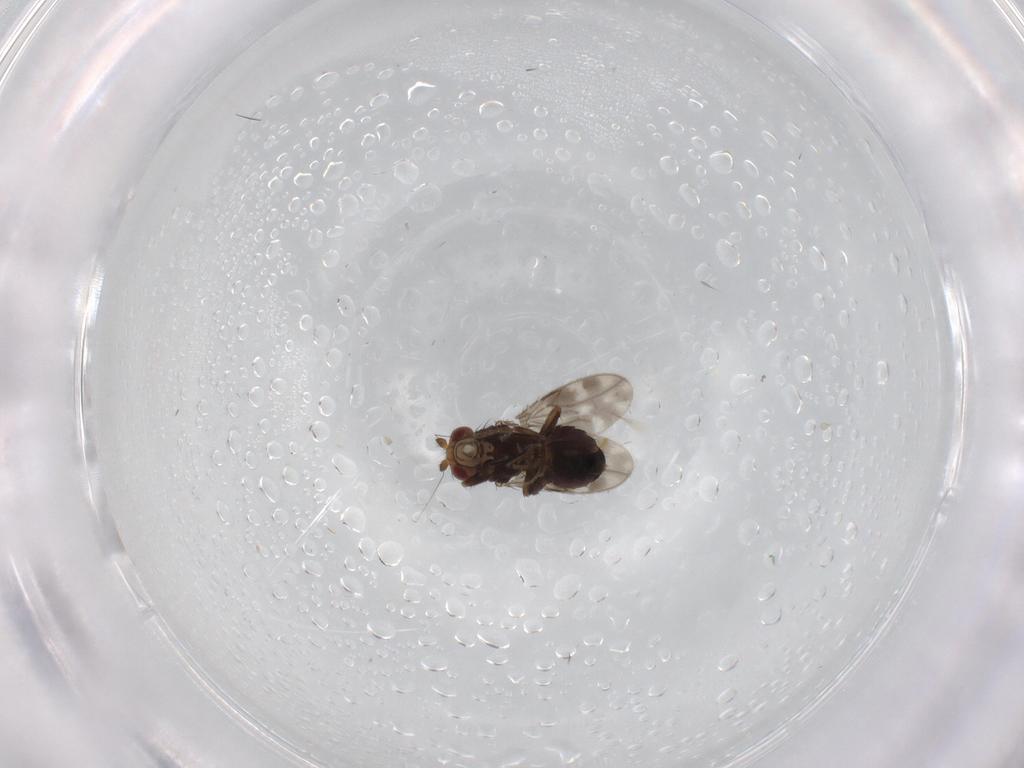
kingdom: Animalia
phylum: Arthropoda
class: Insecta
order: Diptera
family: Sphaeroceridae
